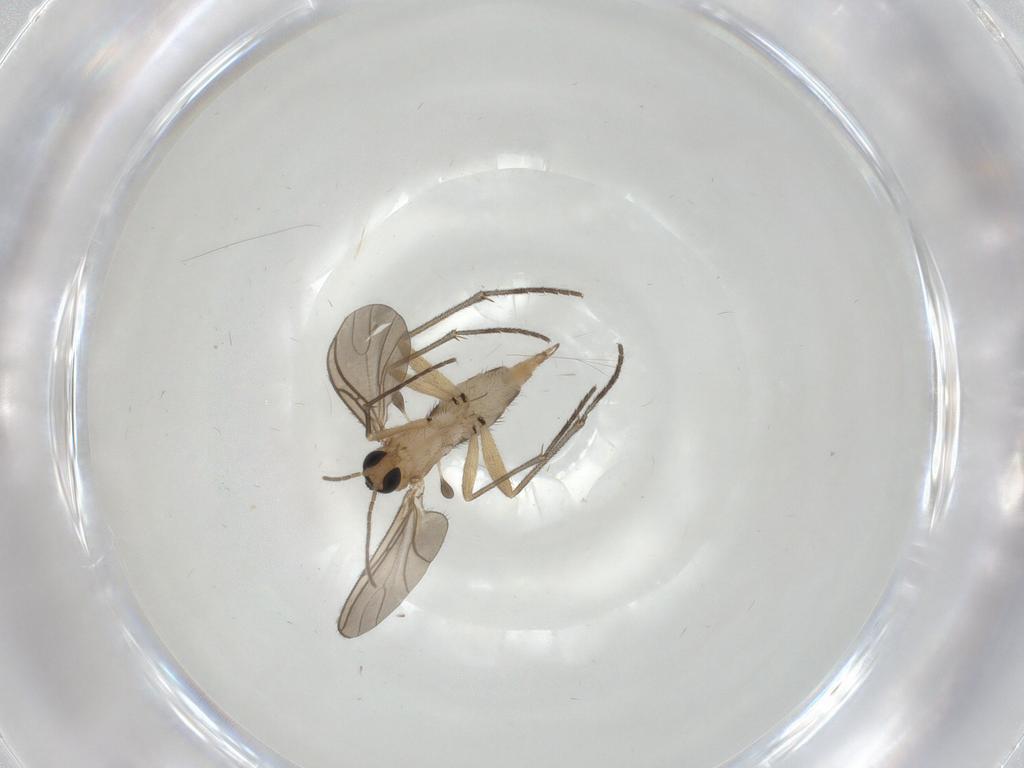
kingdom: Animalia
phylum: Arthropoda
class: Insecta
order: Diptera
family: Sciaridae
